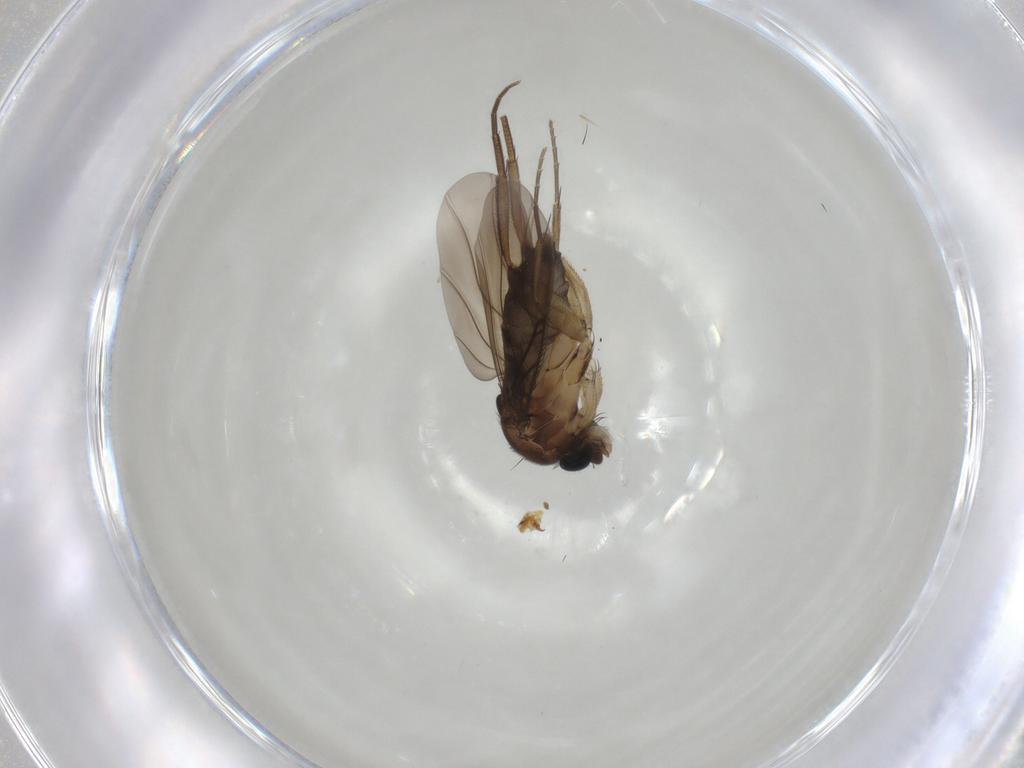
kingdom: Animalia
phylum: Arthropoda
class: Insecta
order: Diptera
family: Phoridae
